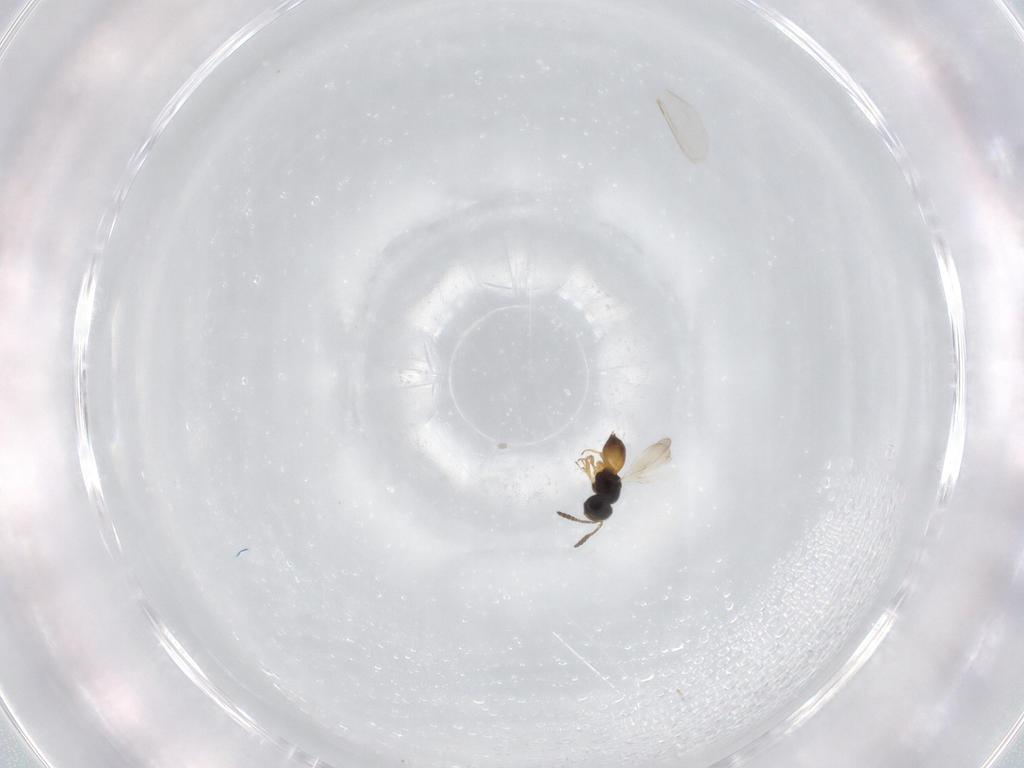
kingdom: Animalia
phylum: Arthropoda
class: Insecta
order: Hymenoptera
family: Scelionidae
